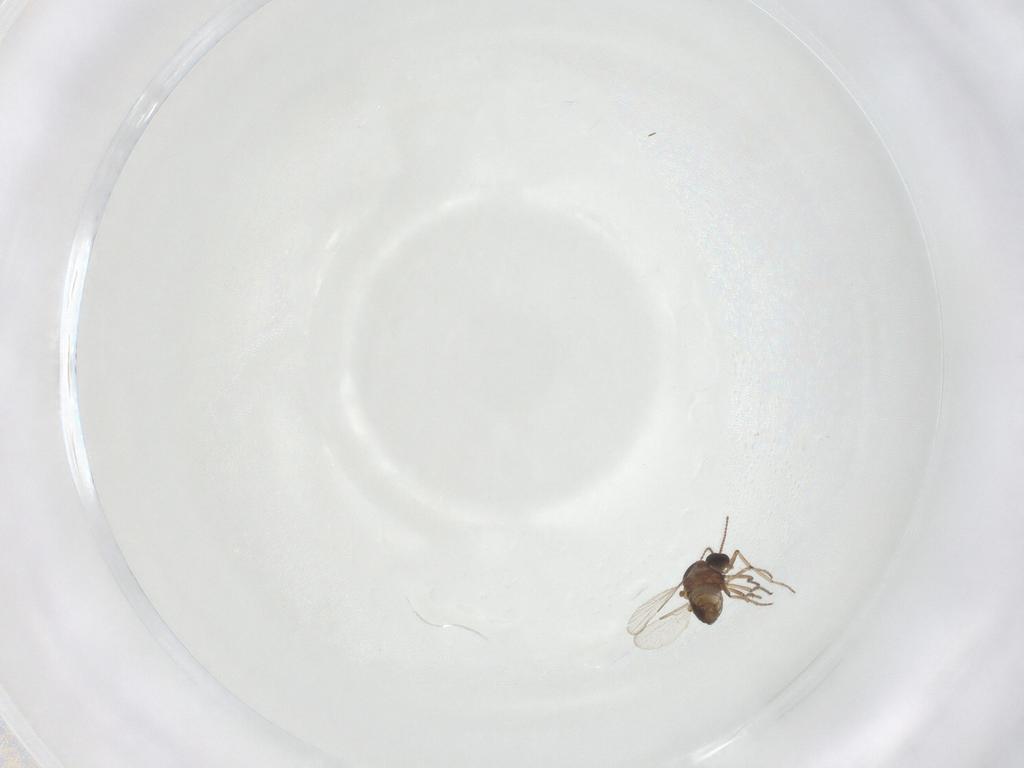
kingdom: Animalia
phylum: Arthropoda
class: Insecta
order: Diptera
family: Ceratopogonidae
